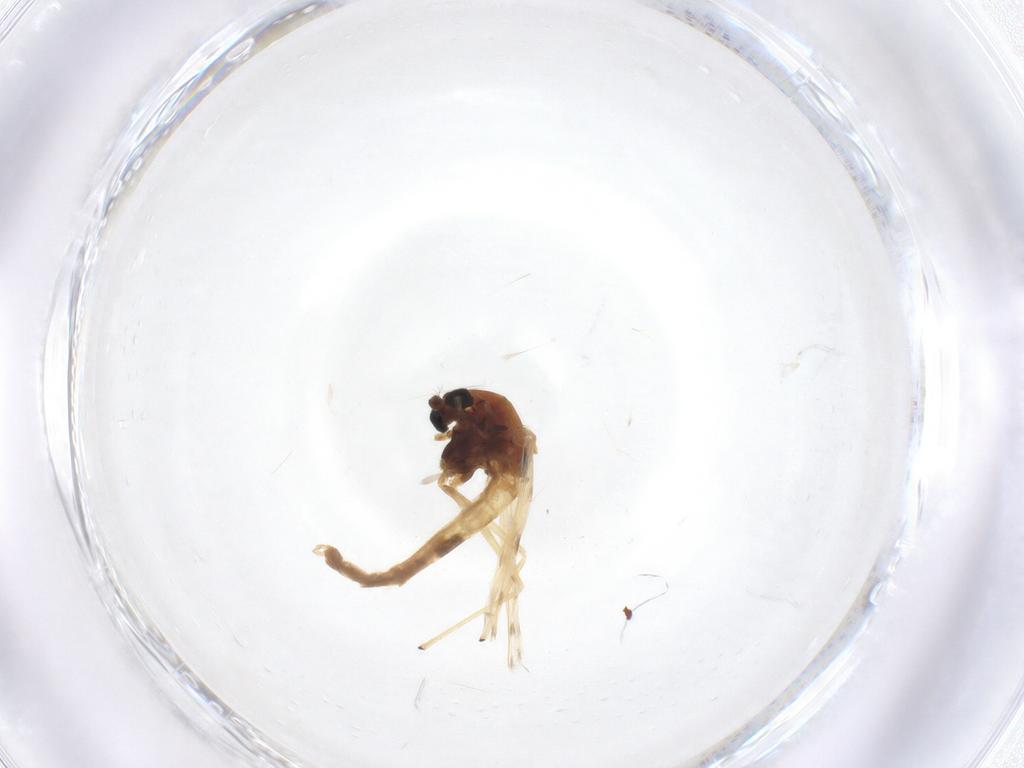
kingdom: Animalia
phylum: Arthropoda
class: Insecta
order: Diptera
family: Chironomidae
